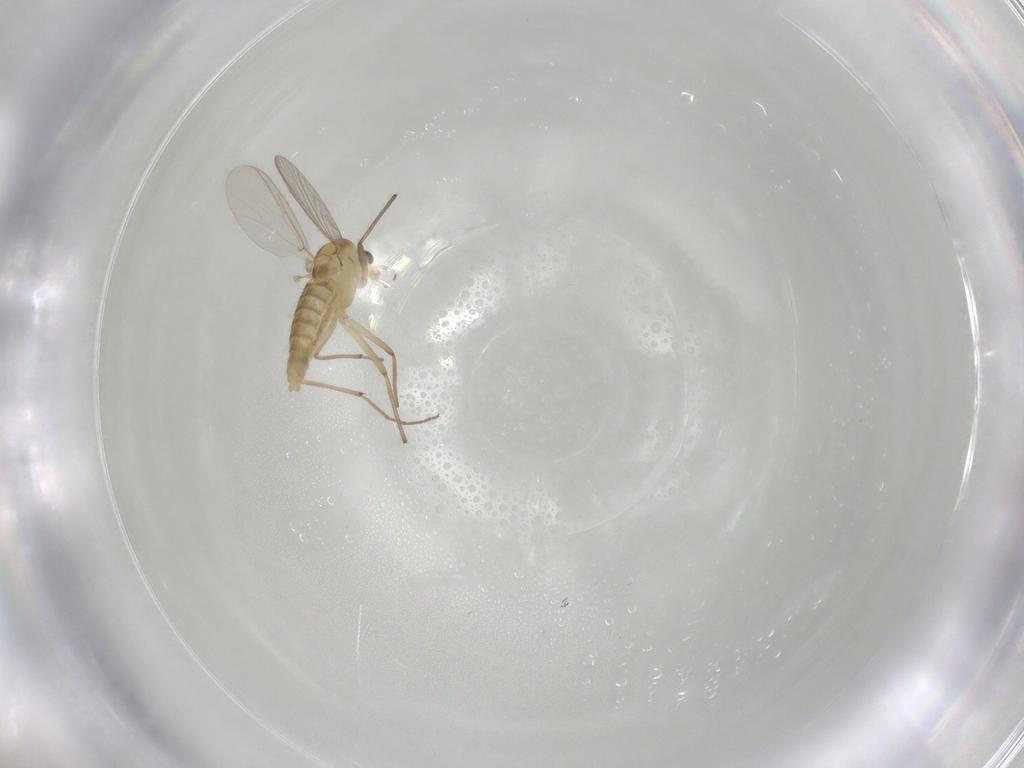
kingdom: Animalia
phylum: Arthropoda
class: Insecta
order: Diptera
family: Chironomidae
